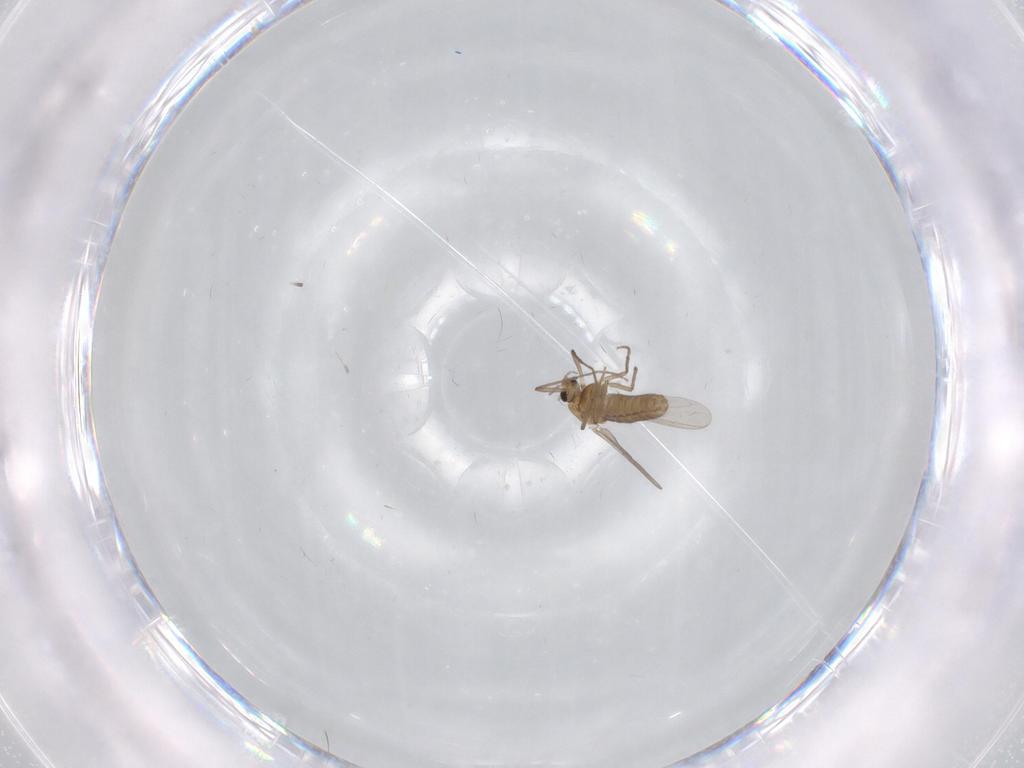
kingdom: Animalia
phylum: Arthropoda
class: Insecta
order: Diptera
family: Chironomidae
